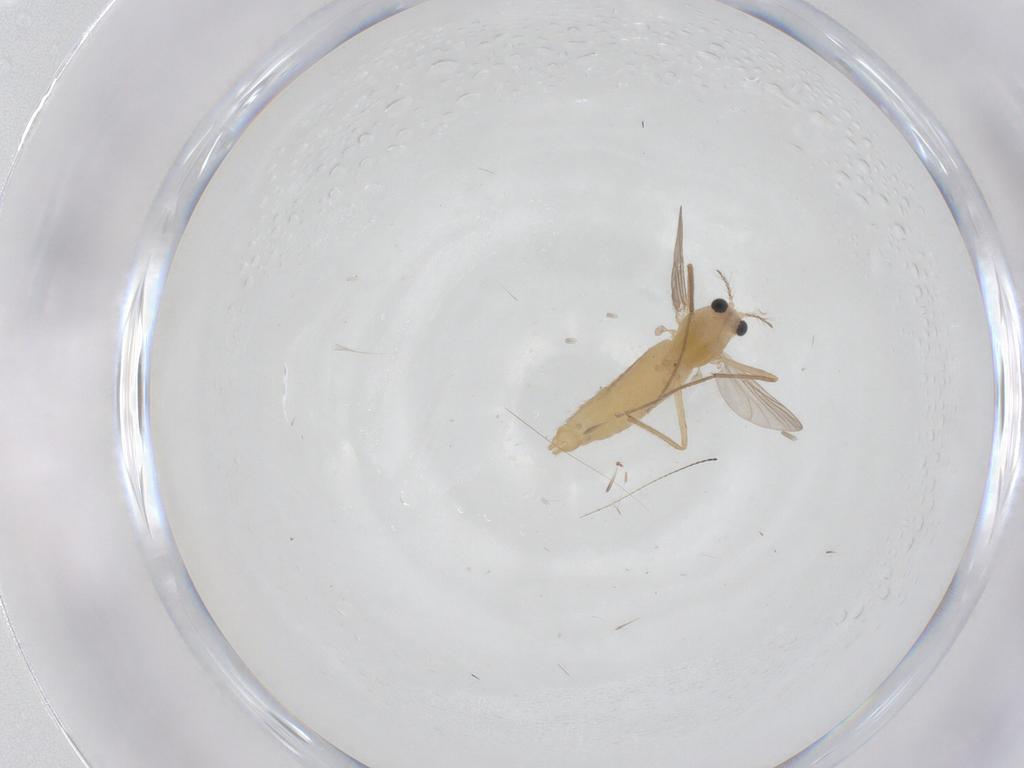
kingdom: Animalia
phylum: Arthropoda
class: Insecta
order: Diptera
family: Chironomidae
